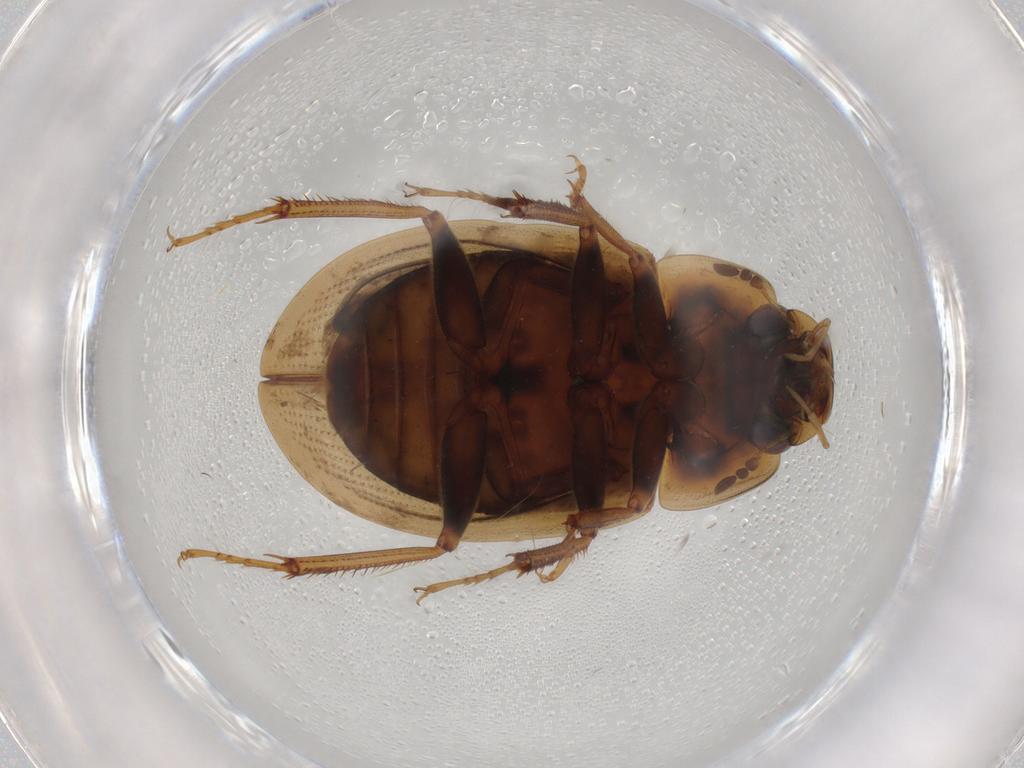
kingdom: Animalia
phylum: Arthropoda
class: Insecta
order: Coleoptera
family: Hydrophilidae
